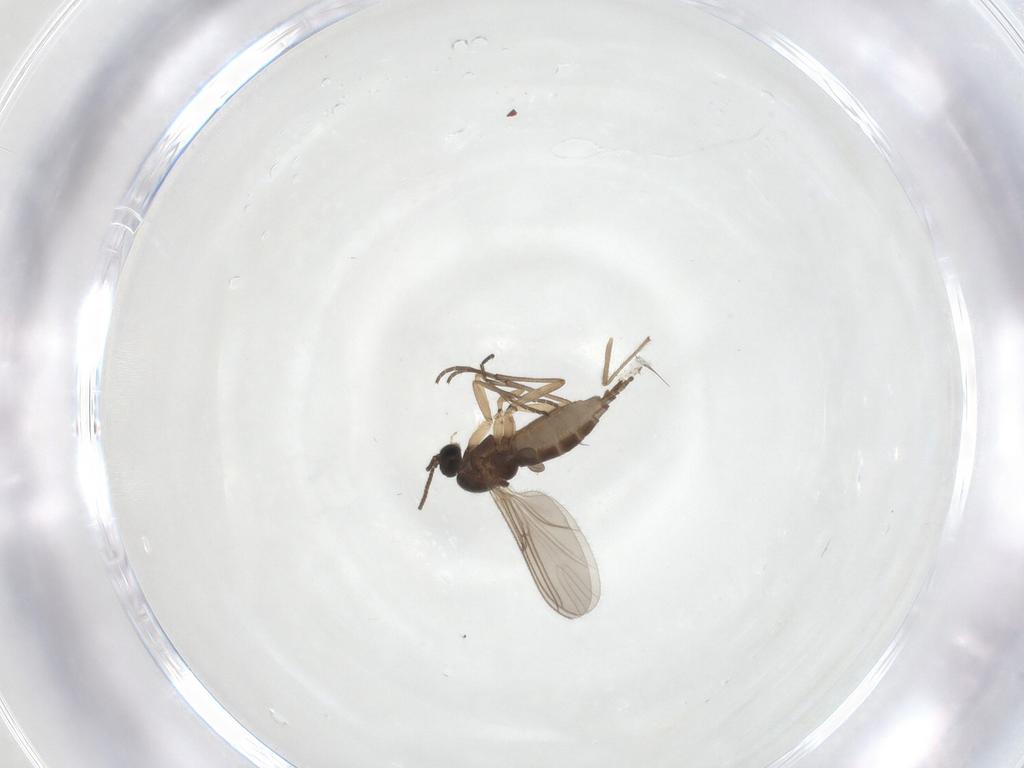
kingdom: Animalia
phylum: Arthropoda
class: Insecta
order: Diptera
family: Sciaridae
